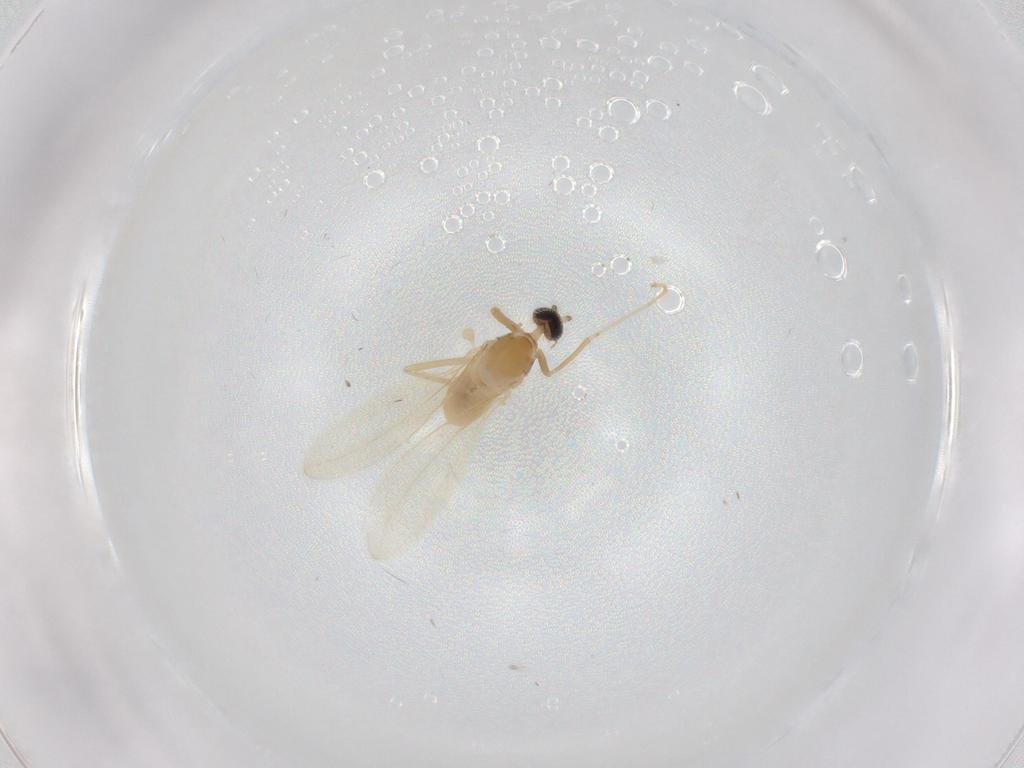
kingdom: Animalia
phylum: Arthropoda
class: Insecta
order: Diptera
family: Cecidomyiidae
